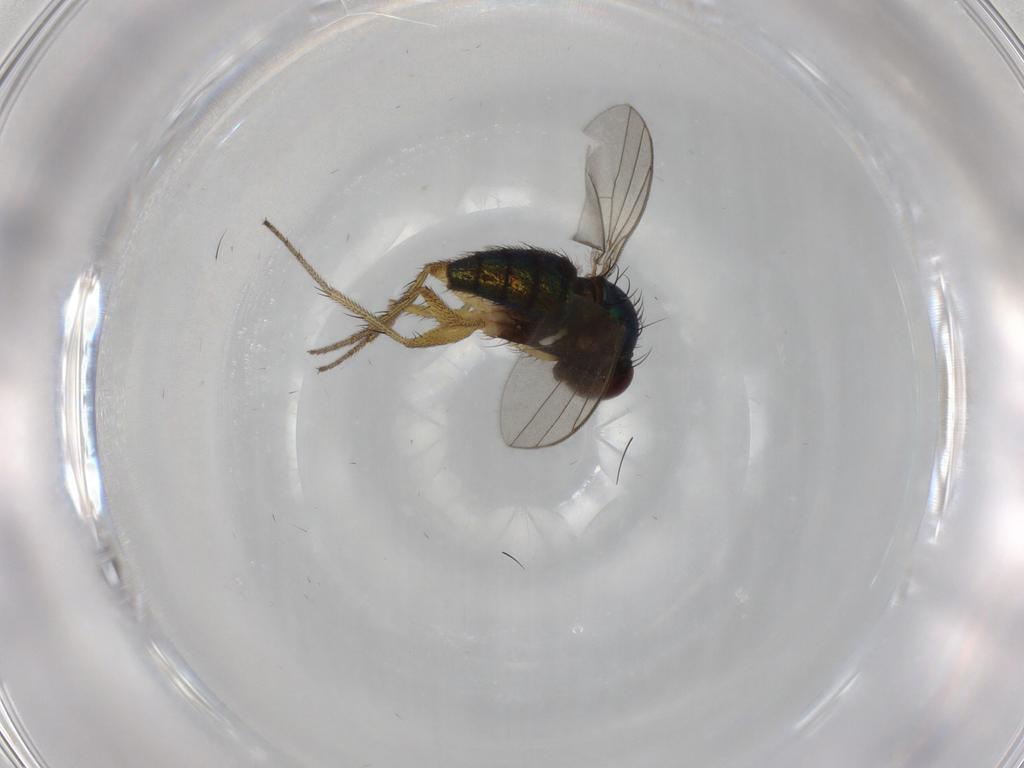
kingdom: Animalia
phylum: Arthropoda
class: Insecta
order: Diptera
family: Dolichopodidae
